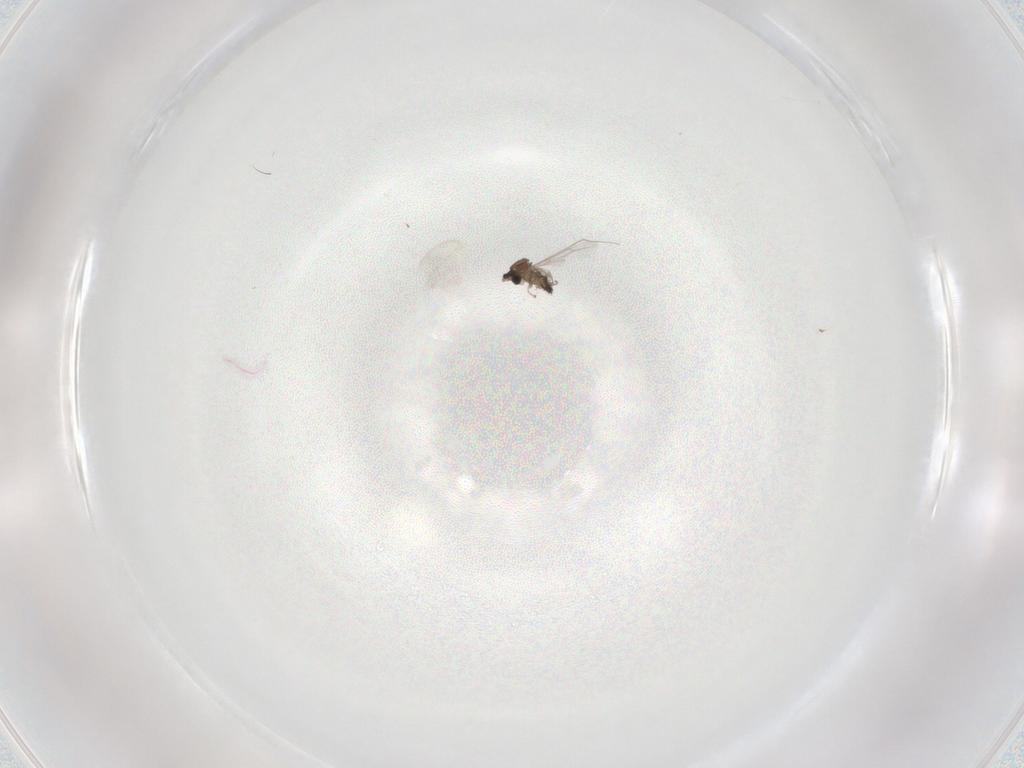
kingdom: Animalia
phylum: Arthropoda
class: Insecta
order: Diptera
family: Cecidomyiidae
